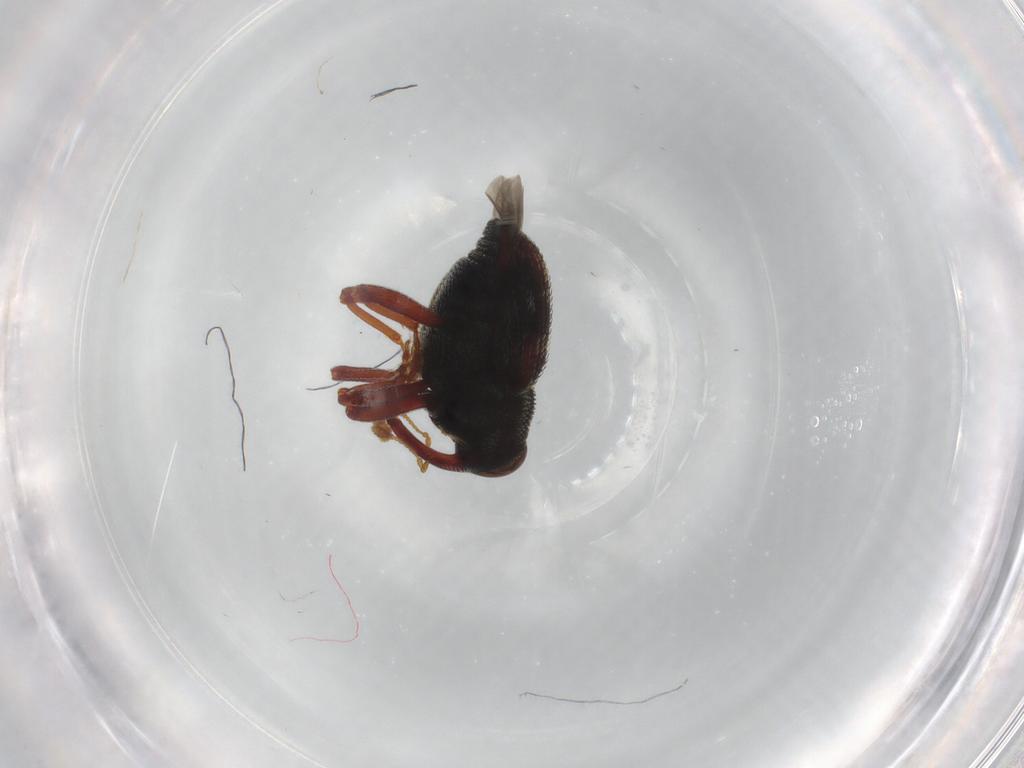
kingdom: Animalia
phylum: Arthropoda
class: Insecta
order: Coleoptera
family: Curculionidae
